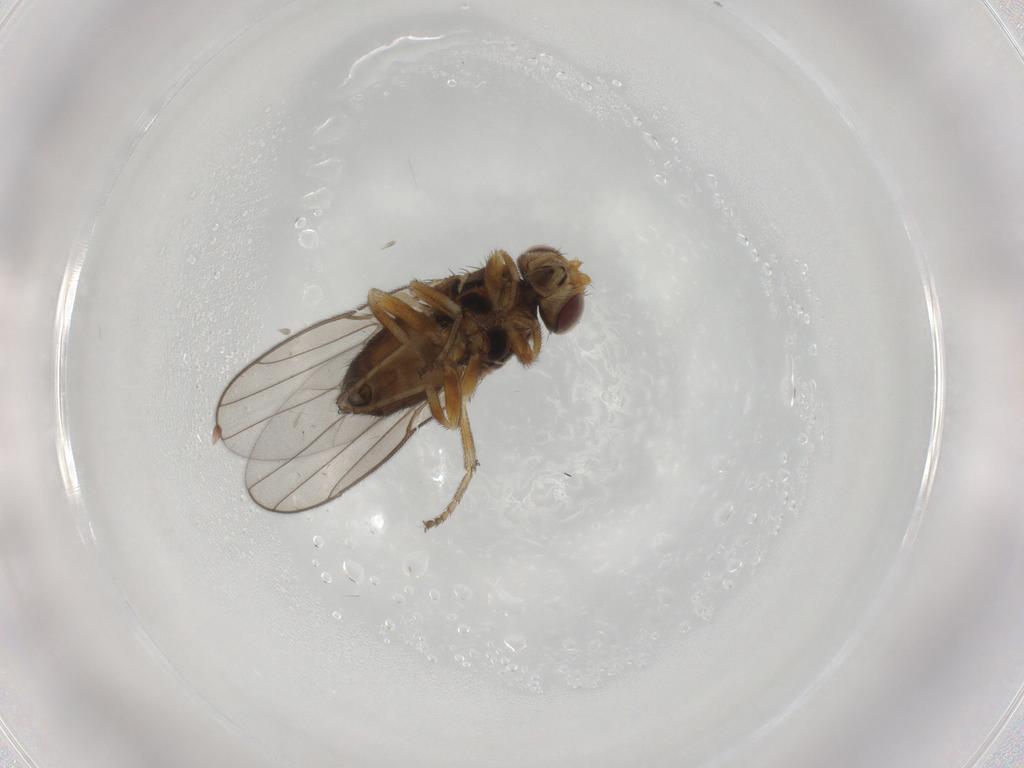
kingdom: Animalia
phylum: Arthropoda
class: Insecta
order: Diptera
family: Chloropidae
